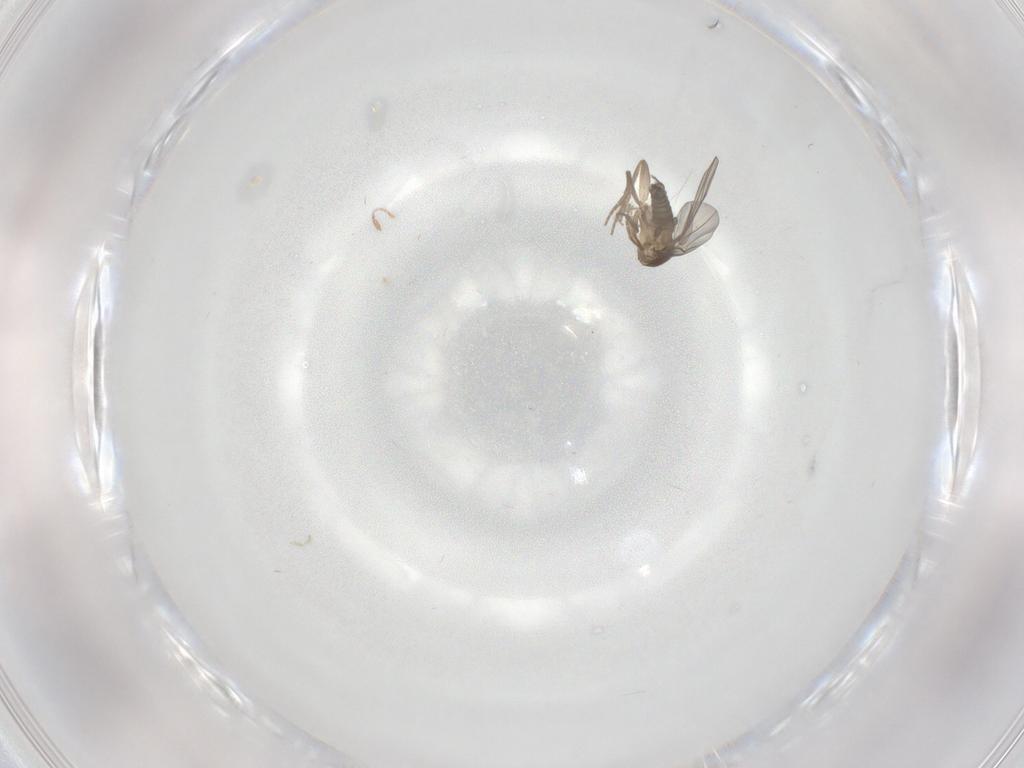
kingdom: Animalia
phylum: Arthropoda
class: Insecta
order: Diptera
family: Phoridae
